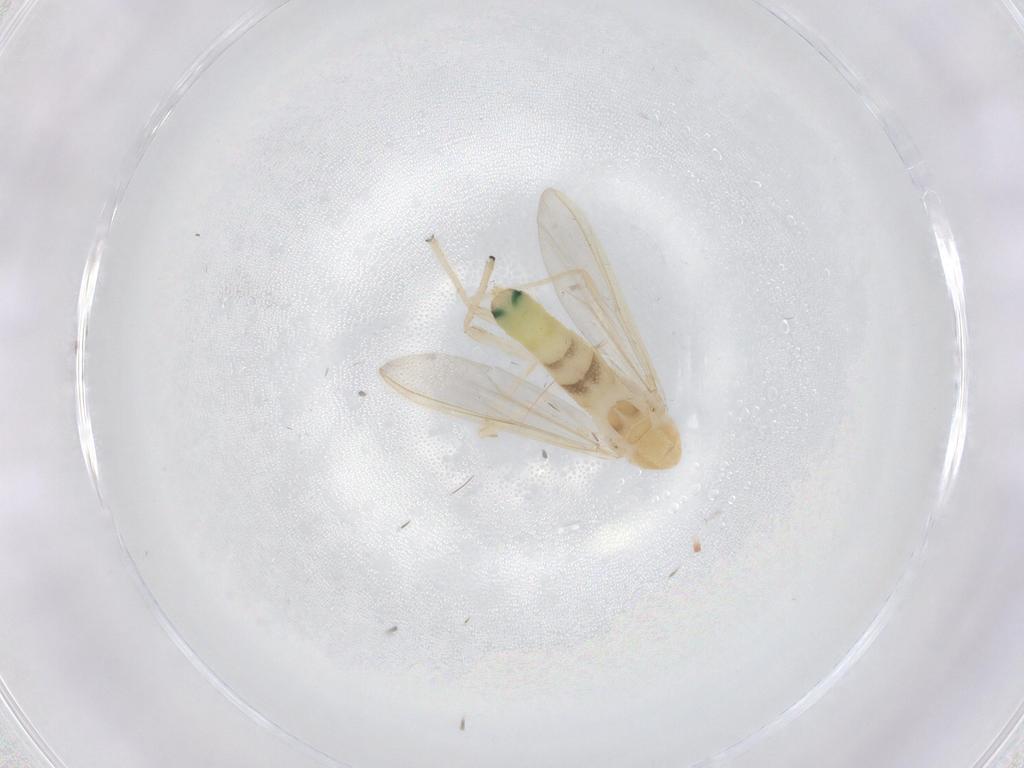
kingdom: Animalia
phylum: Arthropoda
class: Insecta
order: Diptera
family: Chironomidae
